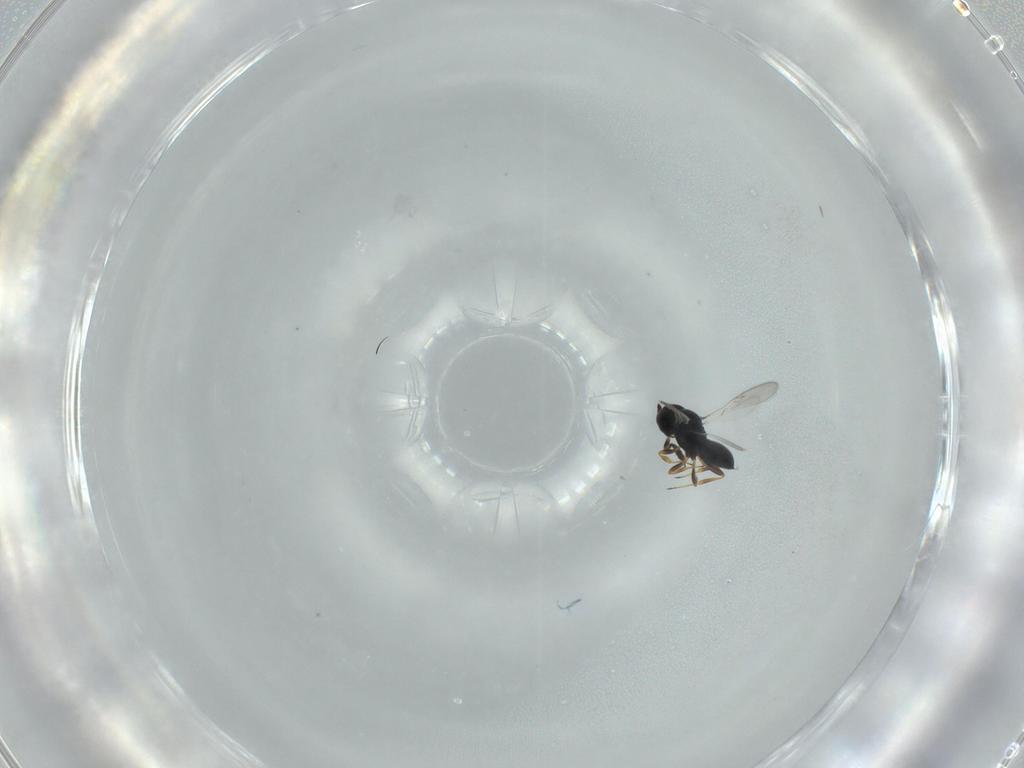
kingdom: Animalia
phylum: Arthropoda
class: Insecta
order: Hymenoptera
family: Scelionidae
